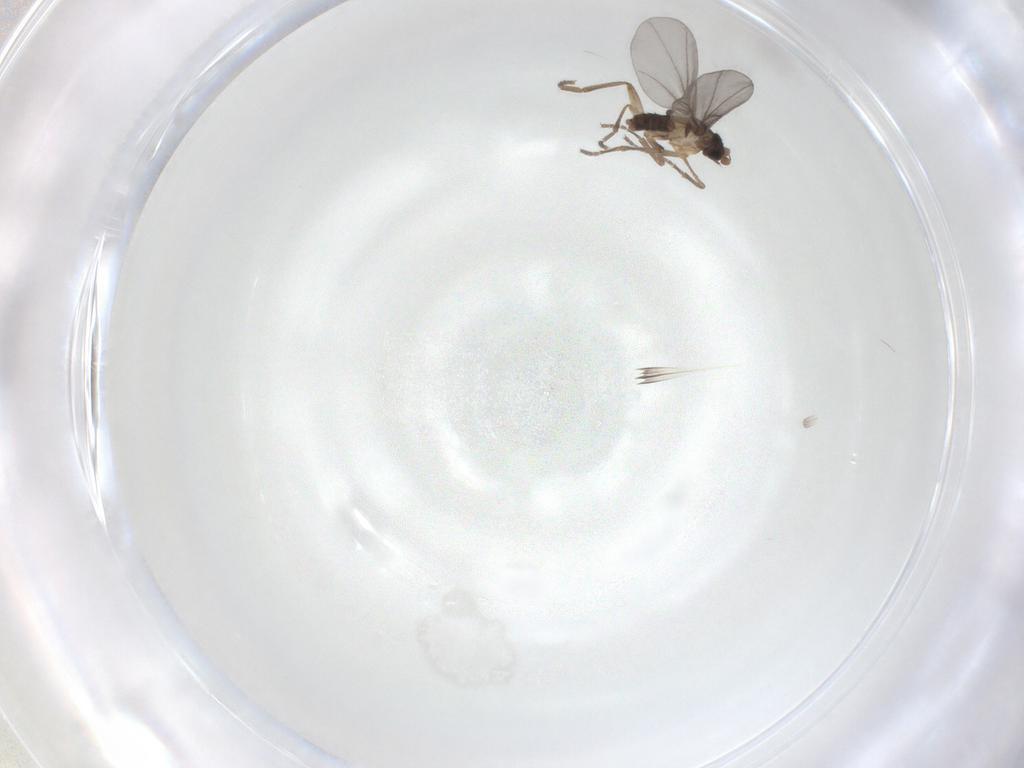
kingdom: Animalia
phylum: Arthropoda
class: Insecta
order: Diptera
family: Phoridae
